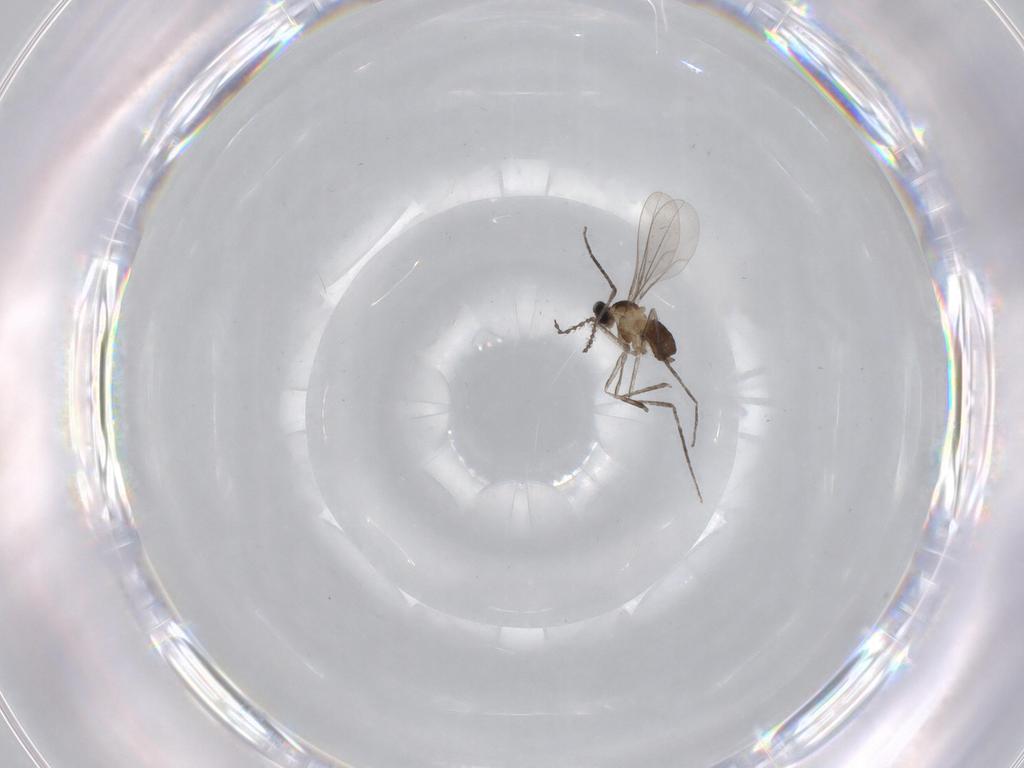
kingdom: Animalia
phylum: Arthropoda
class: Insecta
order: Diptera
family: Cecidomyiidae
